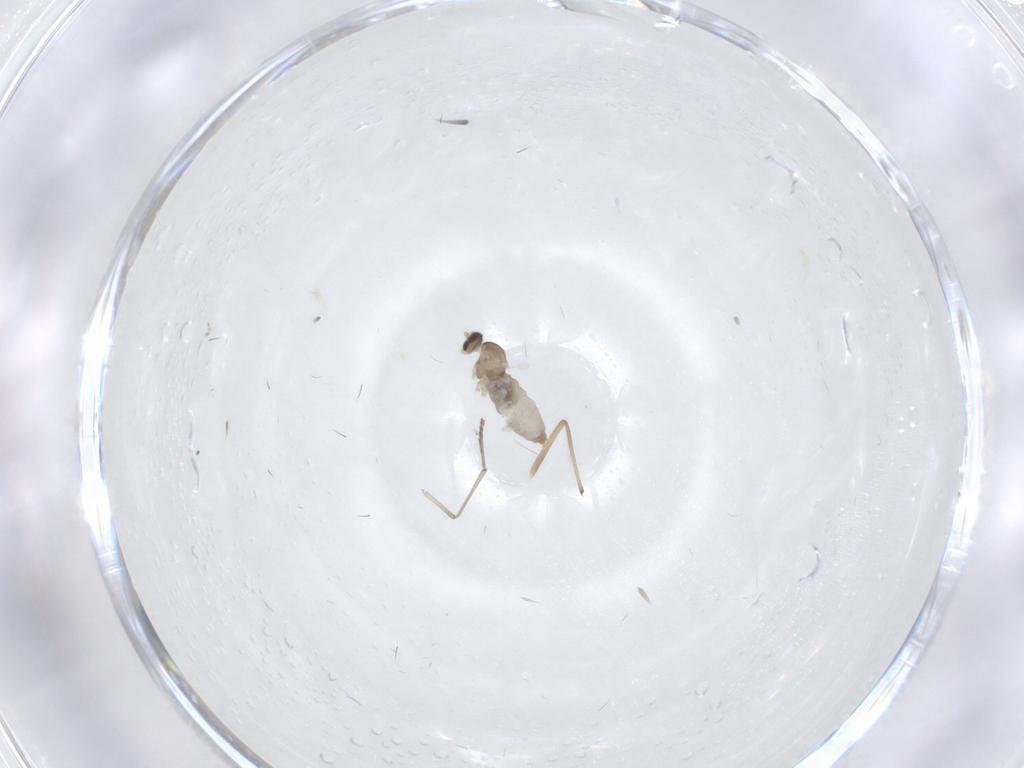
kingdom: Animalia
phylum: Arthropoda
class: Insecta
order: Diptera
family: Cecidomyiidae
